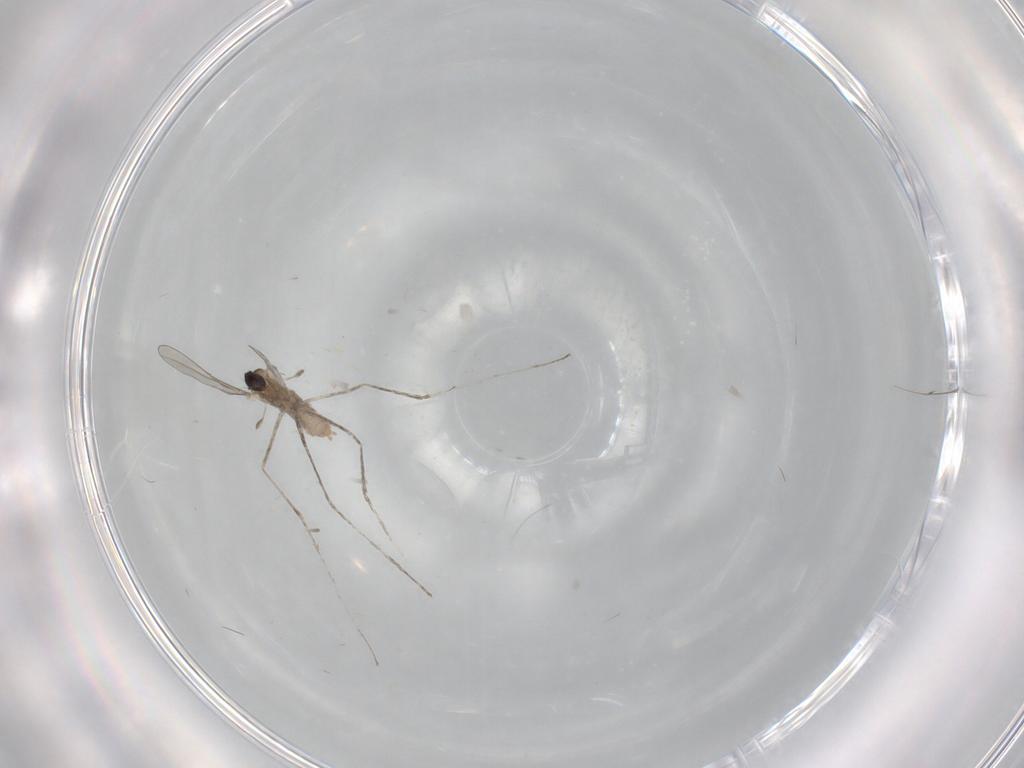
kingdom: Animalia
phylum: Arthropoda
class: Insecta
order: Diptera
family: Cecidomyiidae
